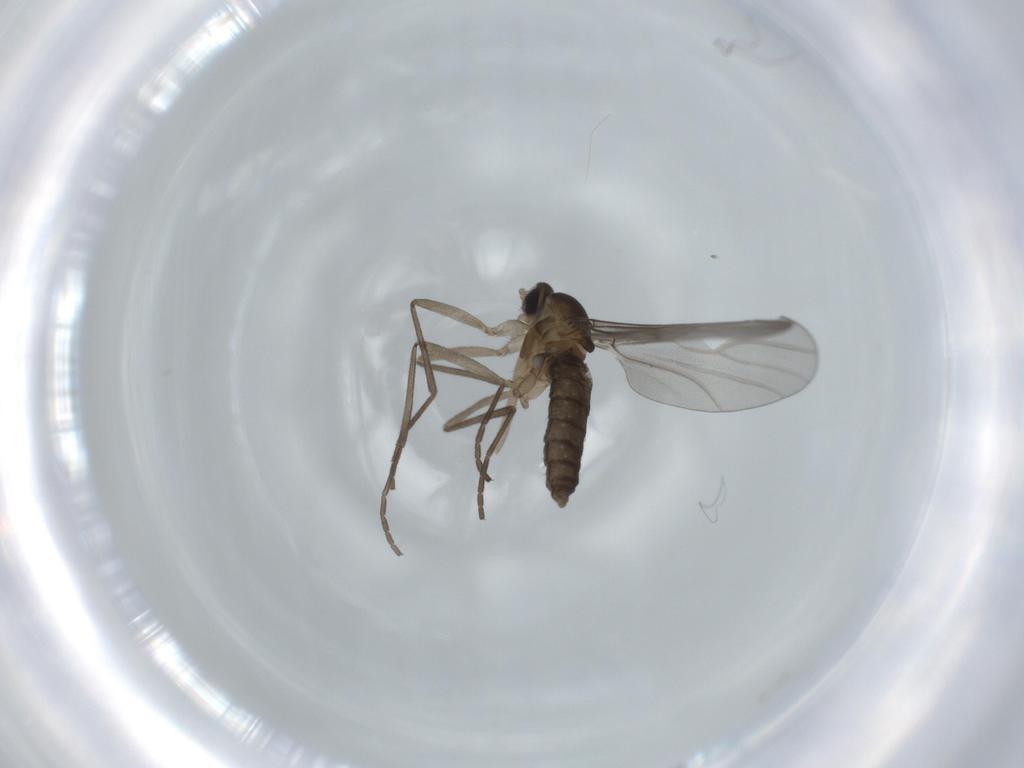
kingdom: Animalia
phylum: Arthropoda
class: Insecta
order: Diptera
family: Cecidomyiidae
